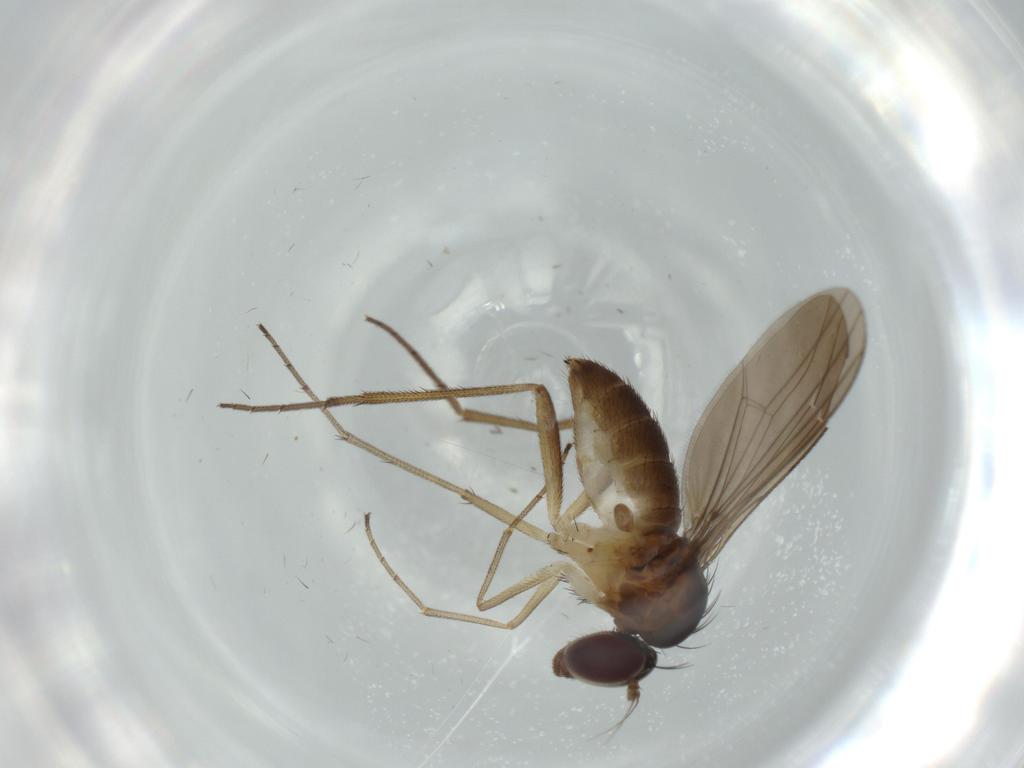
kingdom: Animalia
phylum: Arthropoda
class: Insecta
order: Diptera
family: Dolichopodidae
